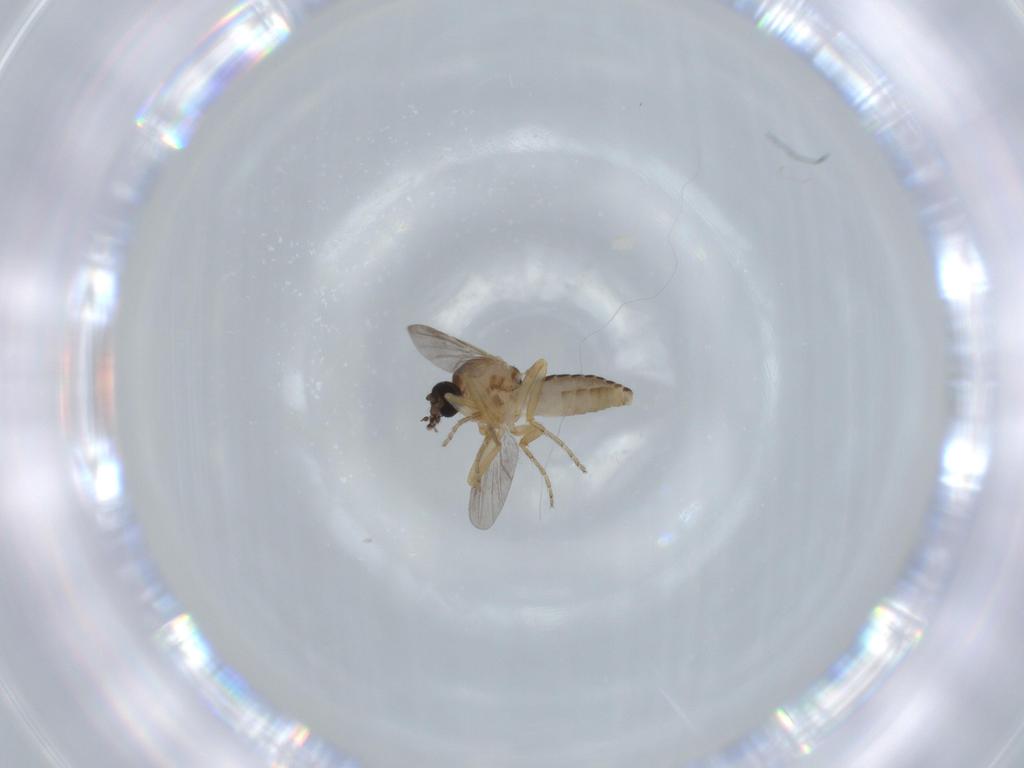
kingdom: Animalia
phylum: Arthropoda
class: Insecta
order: Diptera
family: Ceratopogonidae
